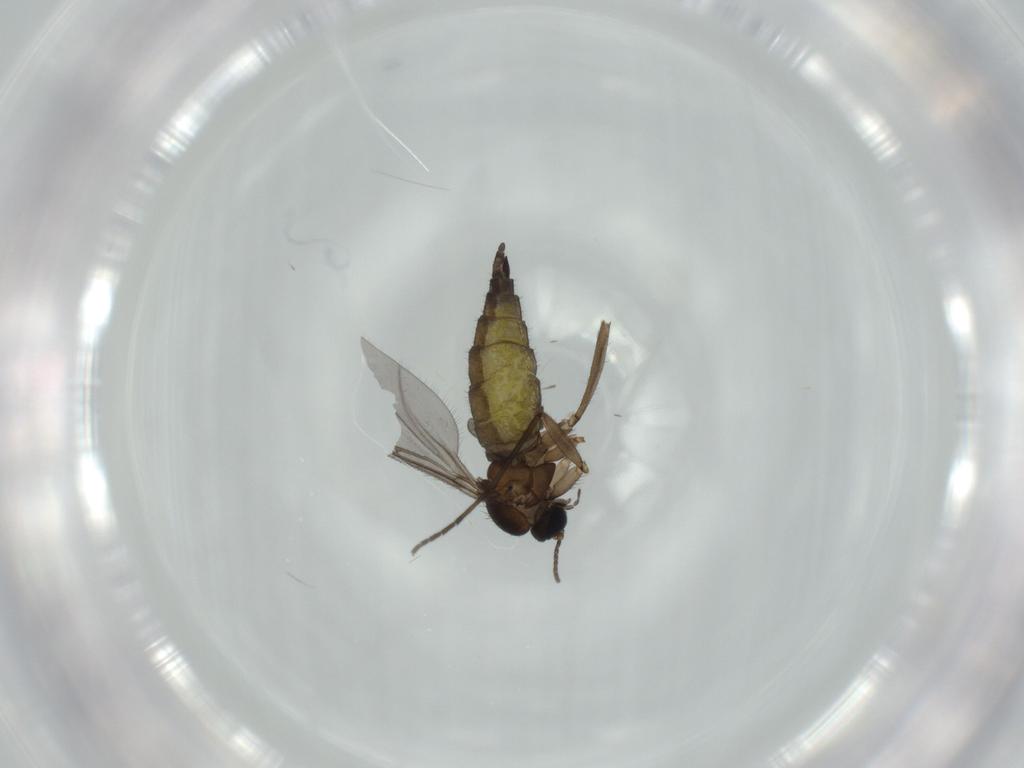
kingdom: Animalia
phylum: Arthropoda
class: Insecta
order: Diptera
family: Sciaridae
